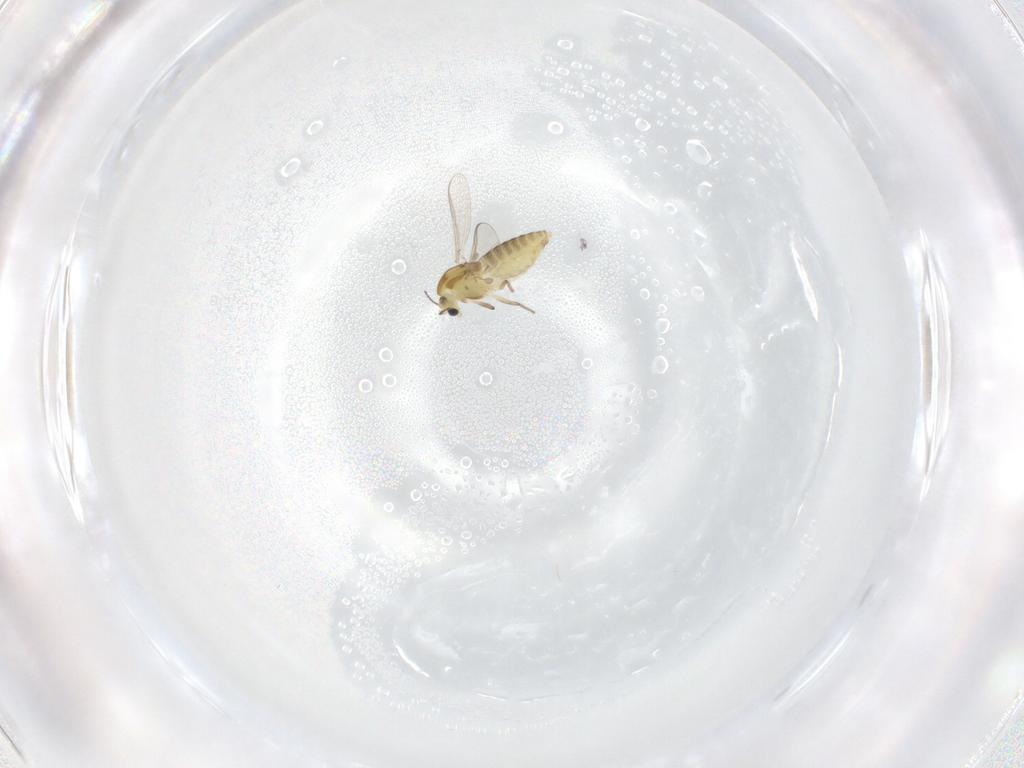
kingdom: Animalia
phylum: Arthropoda
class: Insecta
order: Diptera
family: Chironomidae
